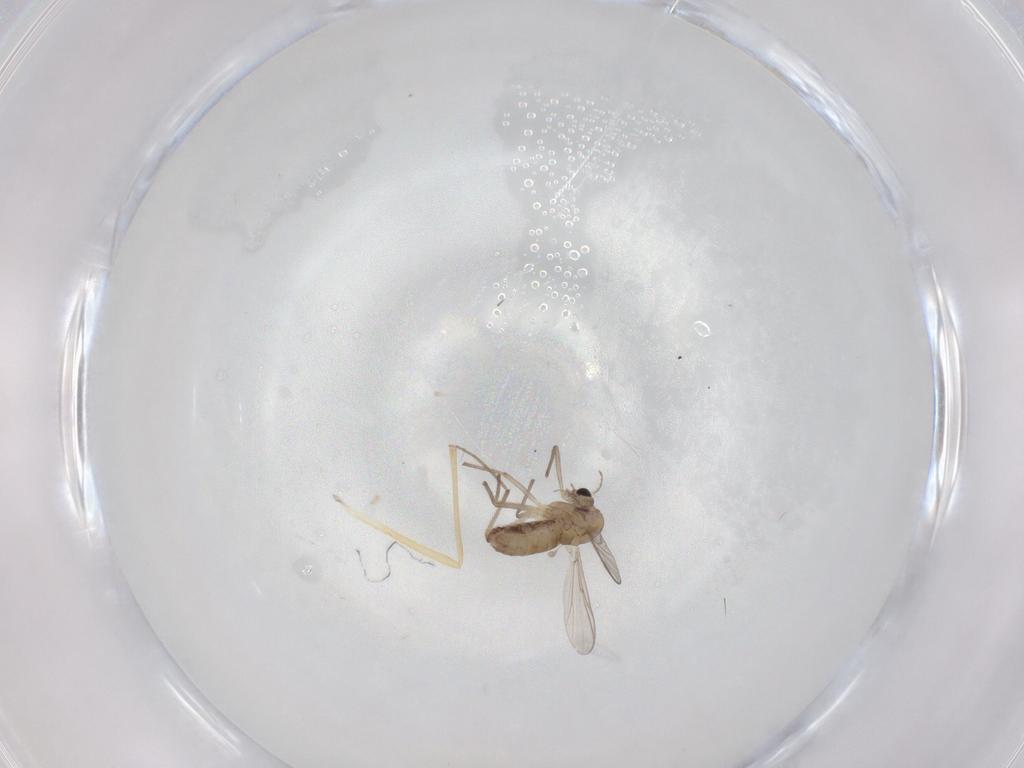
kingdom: Animalia
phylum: Arthropoda
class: Insecta
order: Diptera
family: Chironomidae
